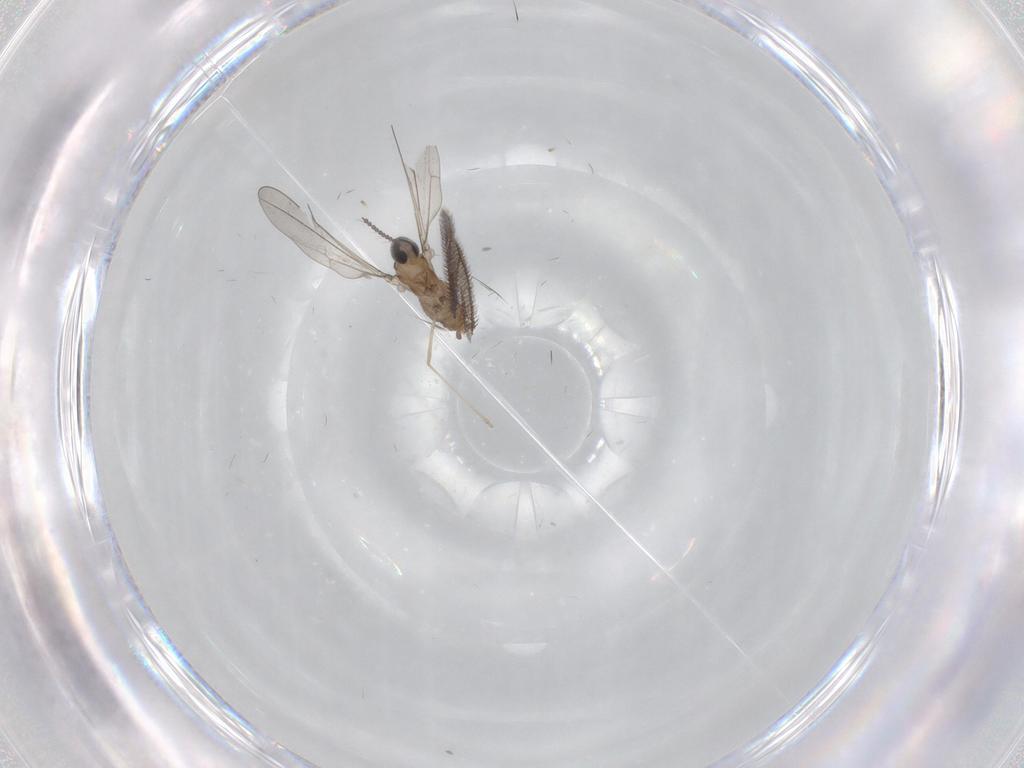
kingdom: Animalia
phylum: Arthropoda
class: Insecta
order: Diptera
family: Cecidomyiidae
